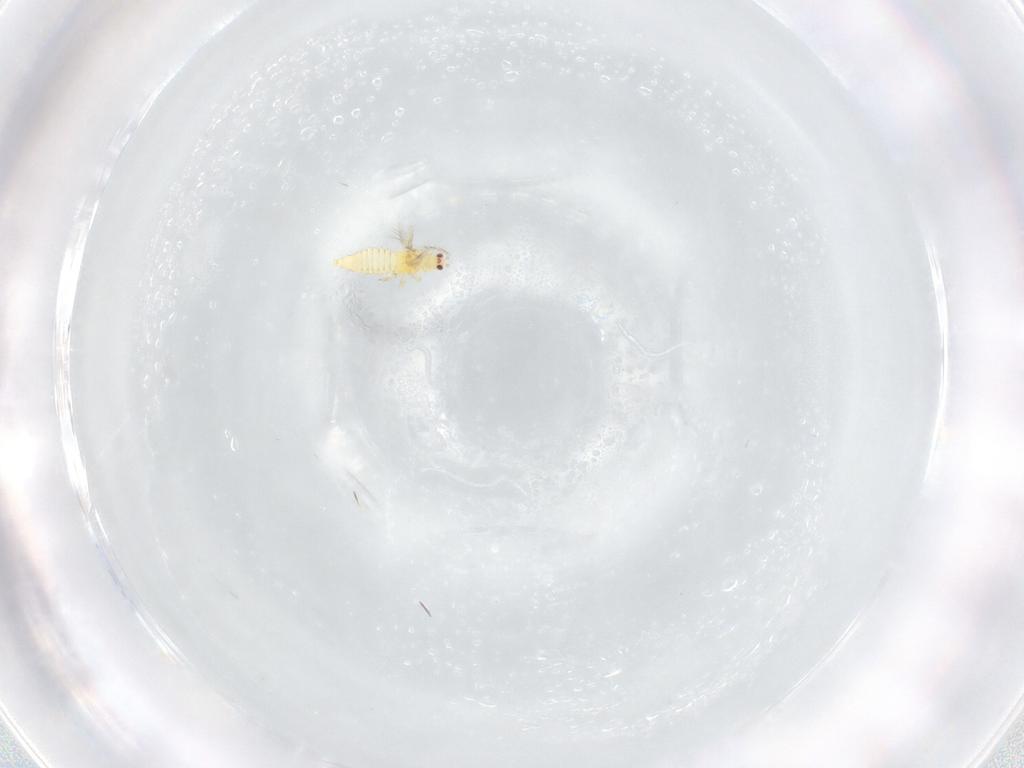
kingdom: Animalia
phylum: Arthropoda
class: Insecta
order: Thysanoptera
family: Thripidae
